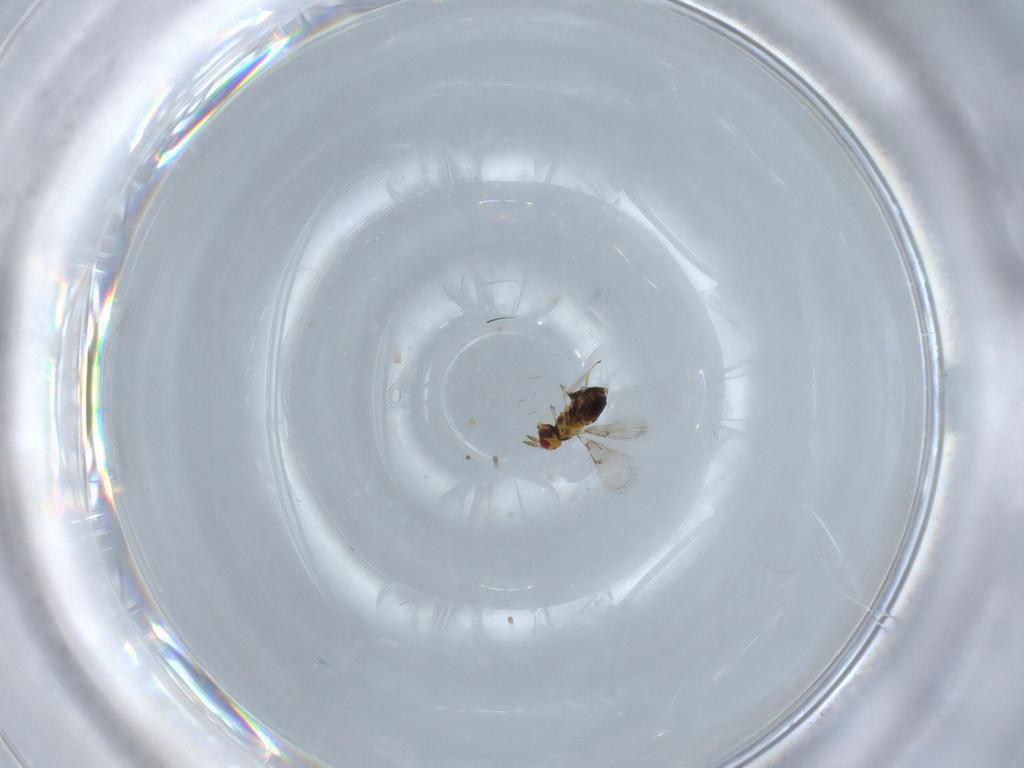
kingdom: Animalia
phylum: Arthropoda
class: Insecta
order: Hymenoptera
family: Trichogrammatidae
